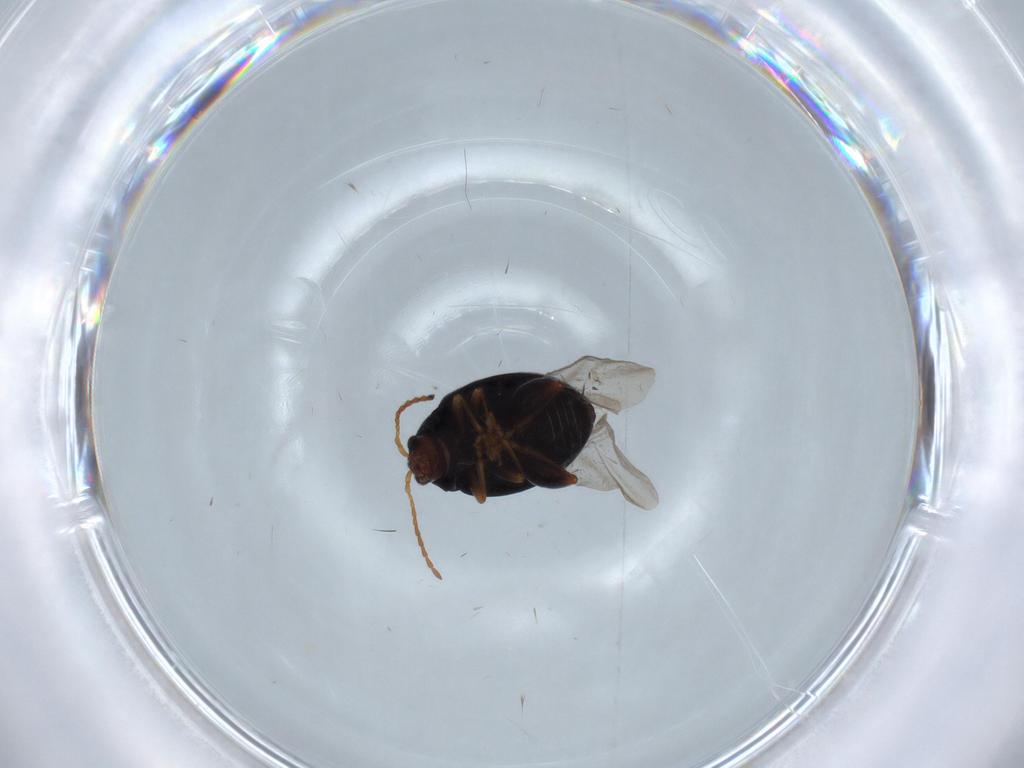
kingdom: Animalia
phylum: Arthropoda
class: Insecta
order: Coleoptera
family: Chrysomelidae
